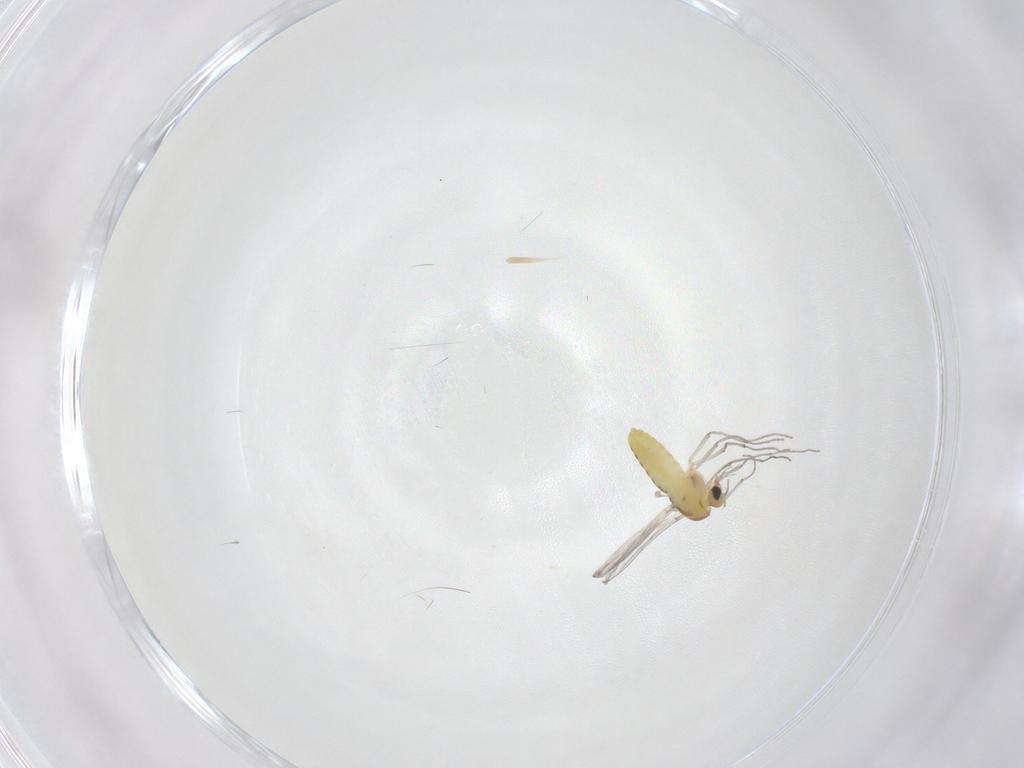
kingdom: Animalia
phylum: Arthropoda
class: Insecta
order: Diptera
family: Chironomidae
